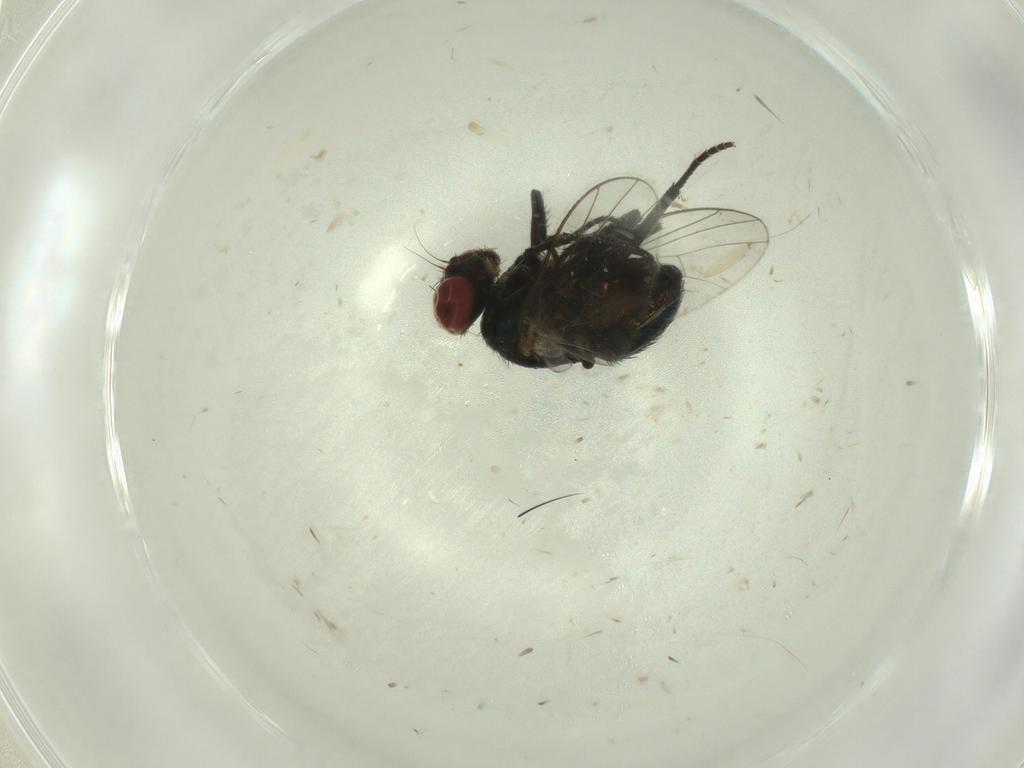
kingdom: Animalia
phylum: Arthropoda
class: Insecta
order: Diptera
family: Agromyzidae
